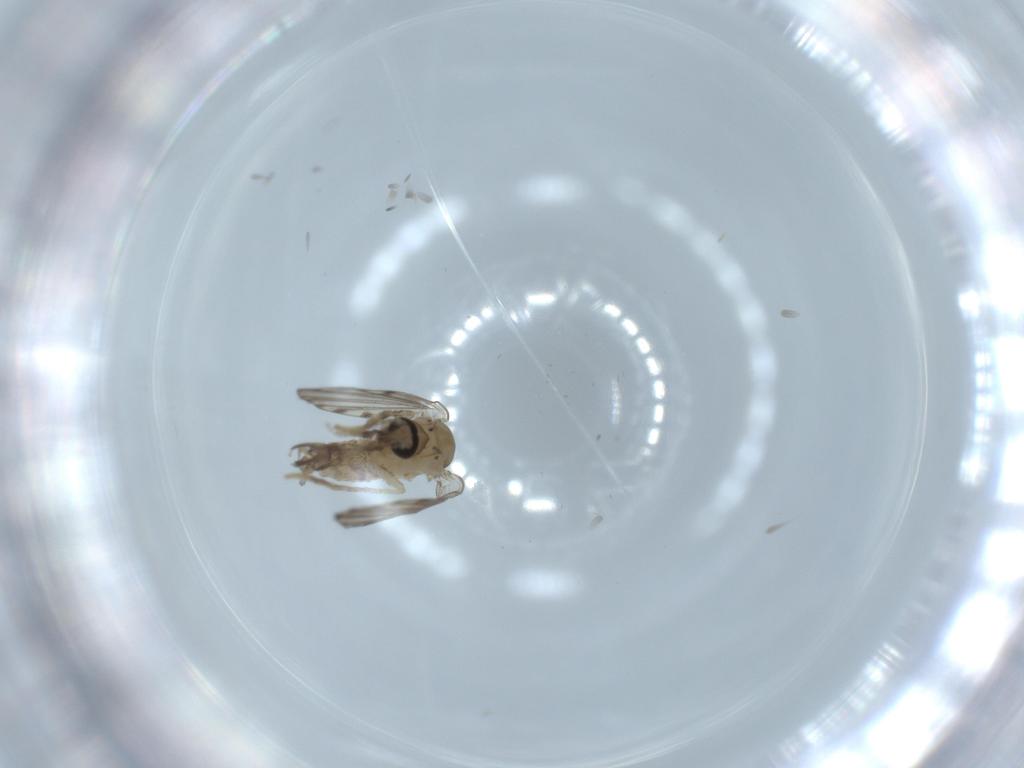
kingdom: Animalia
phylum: Arthropoda
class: Insecta
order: Diptera
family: Psychodidae
